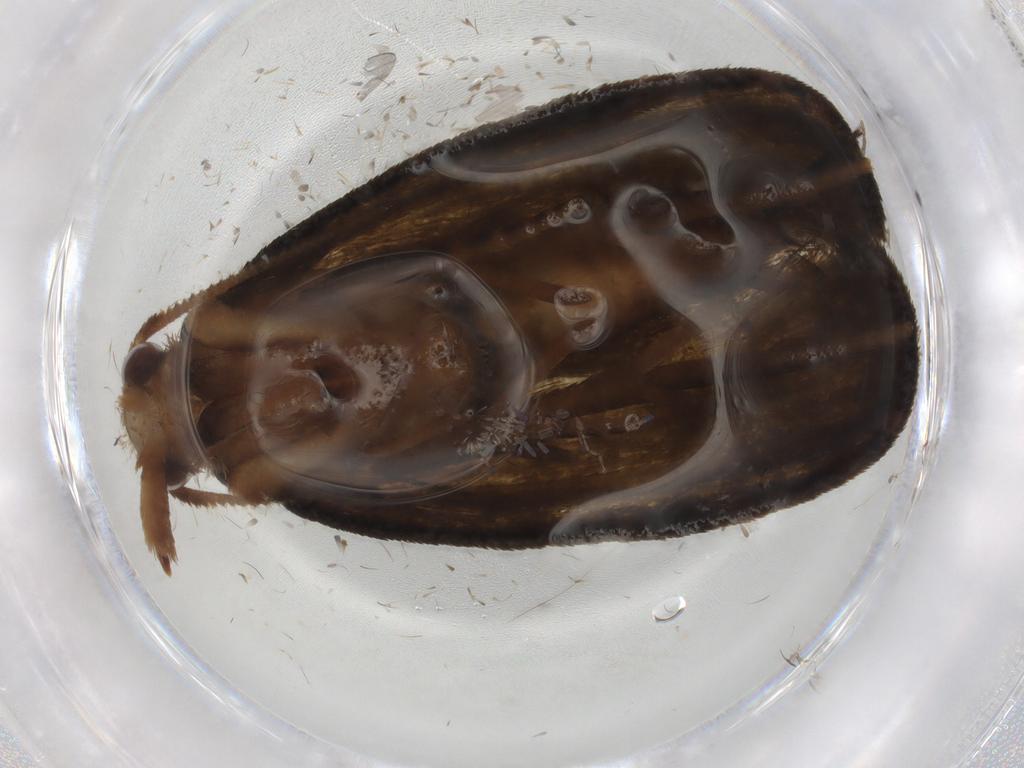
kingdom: Animalia
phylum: Arthropoda
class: Insecta
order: Lepidoptera
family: Geometridae
